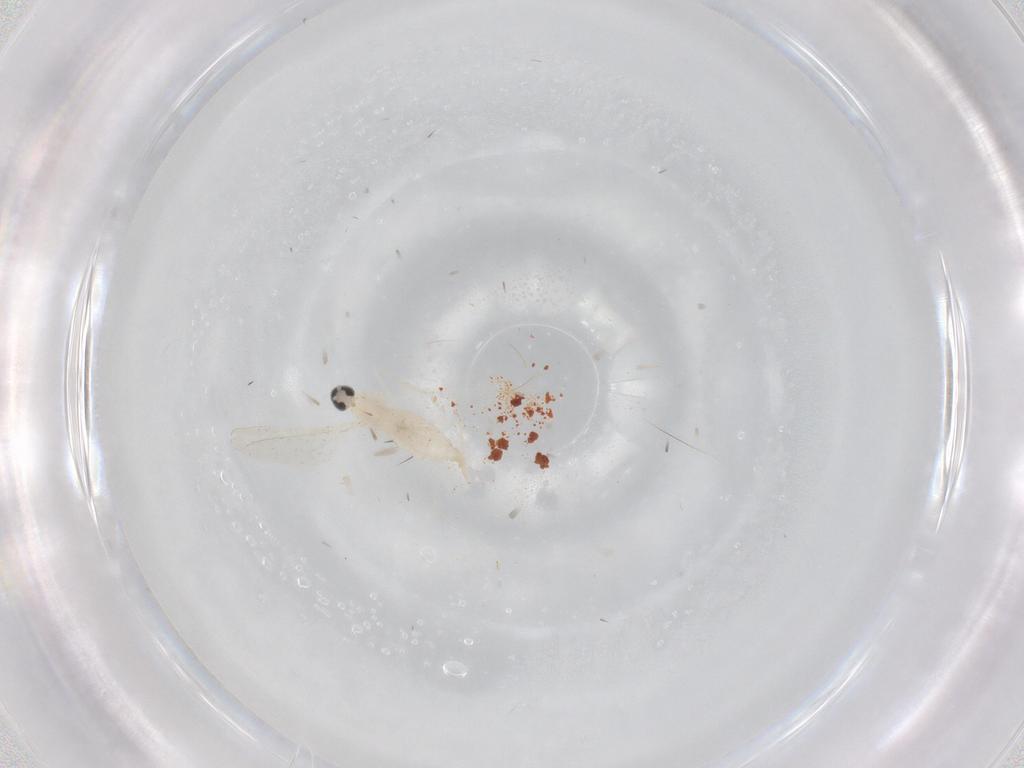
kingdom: Animalia
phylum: Arthropoda
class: Insecta
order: Diptera
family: Cecidomyiidae
